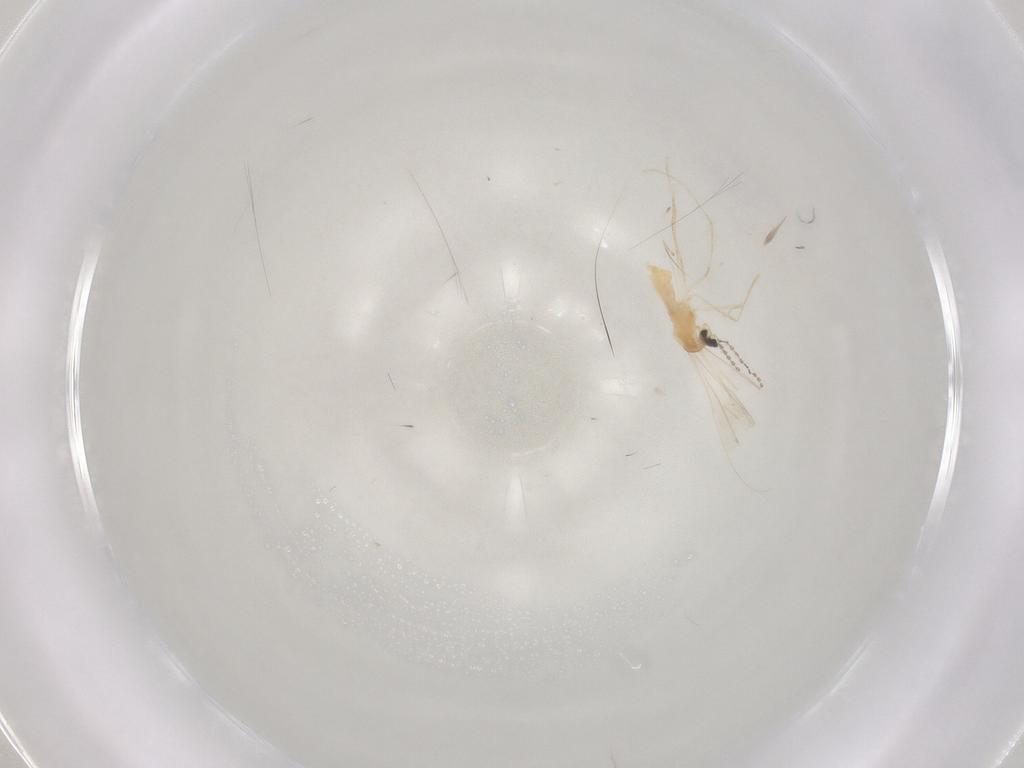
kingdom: Animalia
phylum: Arthropoda
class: Insecta
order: Diptera
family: Drosophilidae
